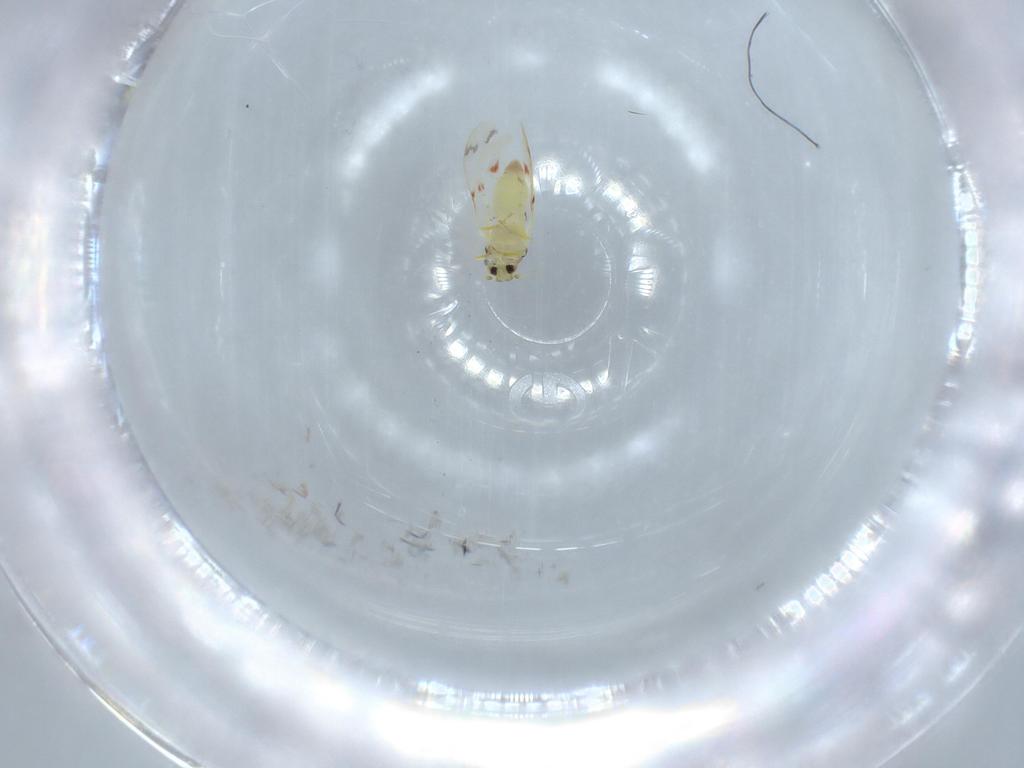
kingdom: Animalia
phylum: Arthropoda
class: Insecta
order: Hemiptera
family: Aleyrodidae
